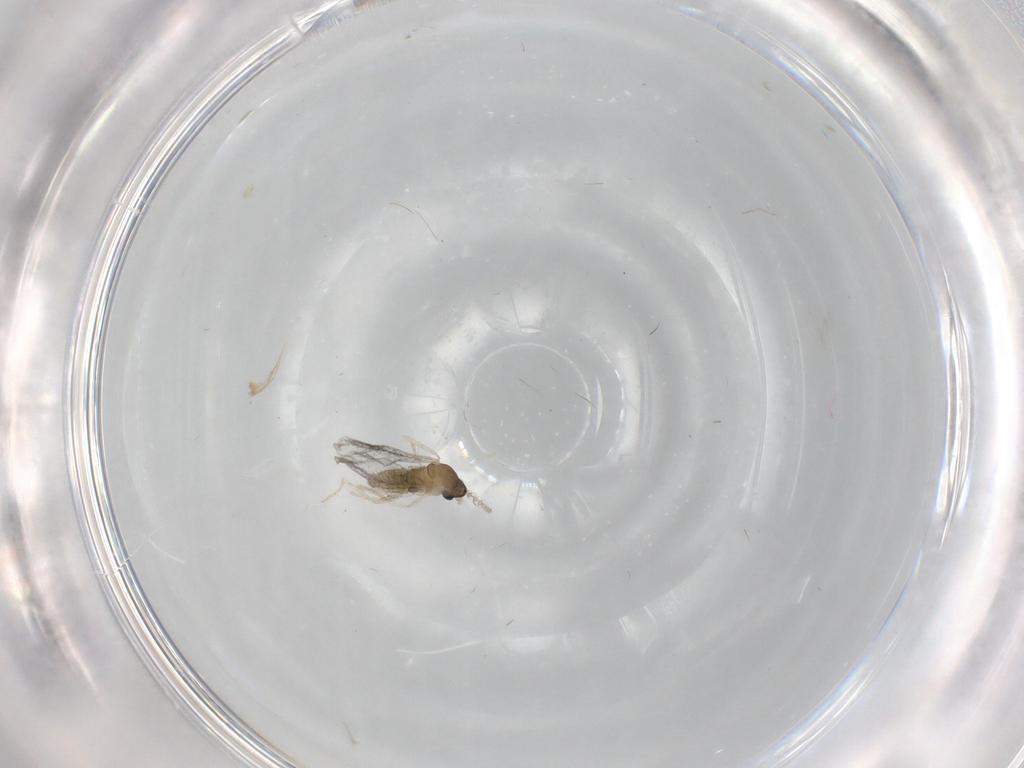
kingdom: Animalia
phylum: Arthropoda
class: Insecta
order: Diptera
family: Cecidomyiidae
